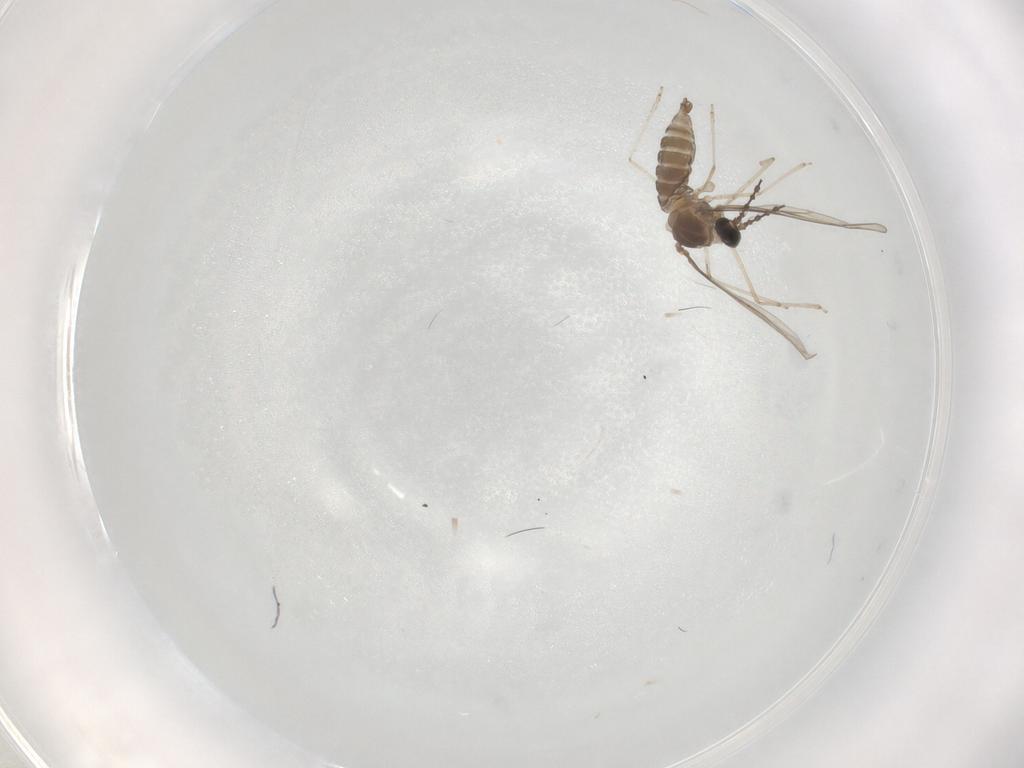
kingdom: Animalia
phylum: Arthropoda
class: Insecta
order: Diptera
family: Cecidomyiidae
